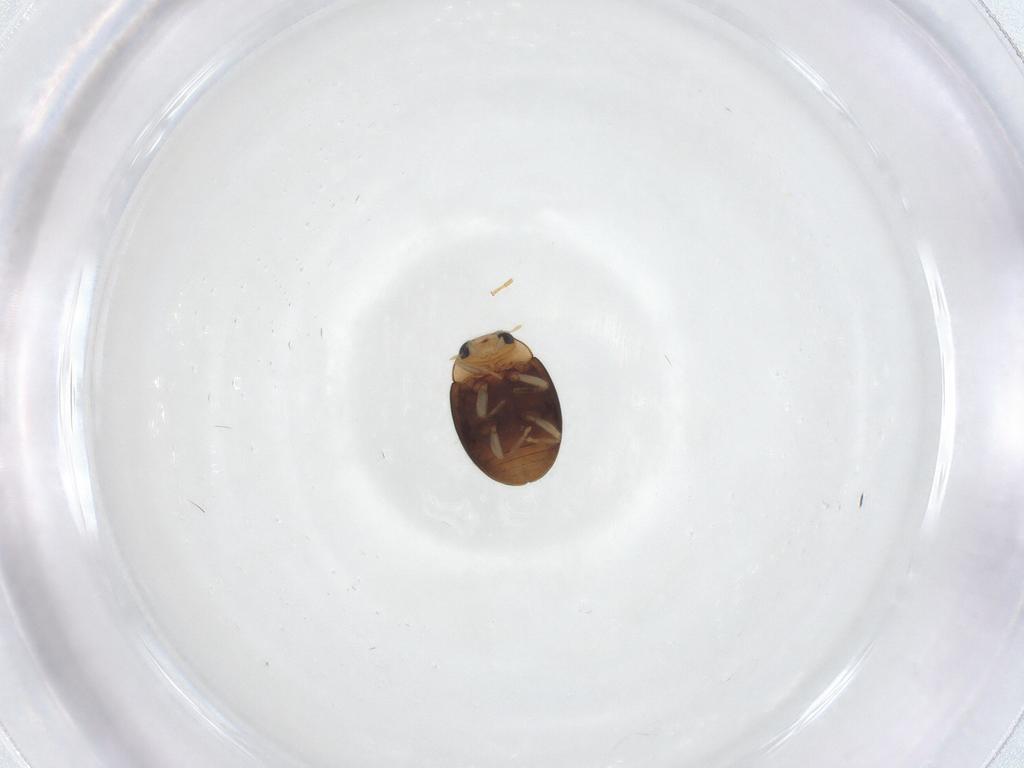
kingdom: Animalia
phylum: Arthropoda
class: Insecta
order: Coleoptera
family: Coccinellidae
